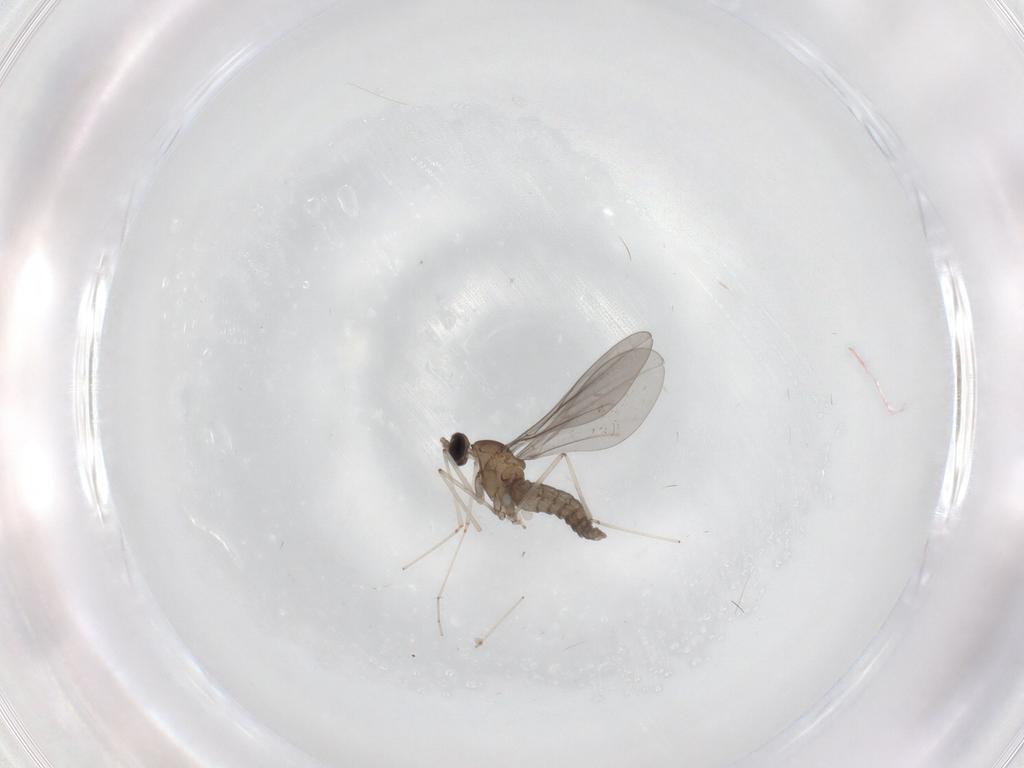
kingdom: Animalia
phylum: Arthropoda
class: Insecta
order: Diptera
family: Cecidomyiidae
